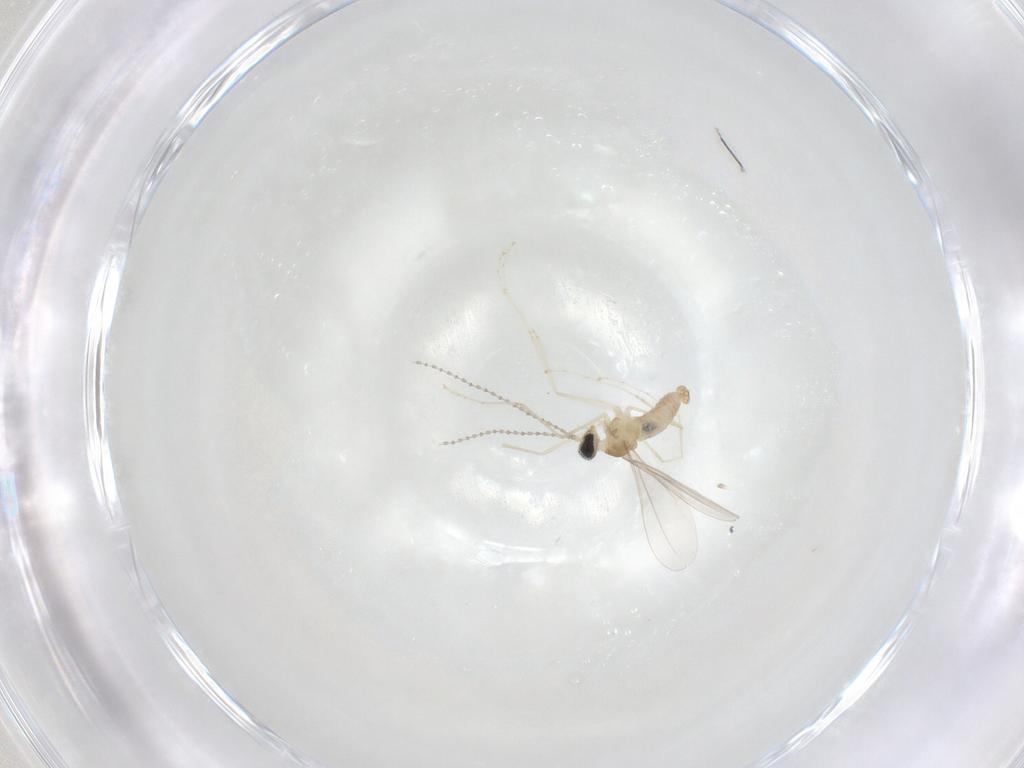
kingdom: Animalia
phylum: Arthropoda
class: Insecta
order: Diptera
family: Cecidomyiidae
